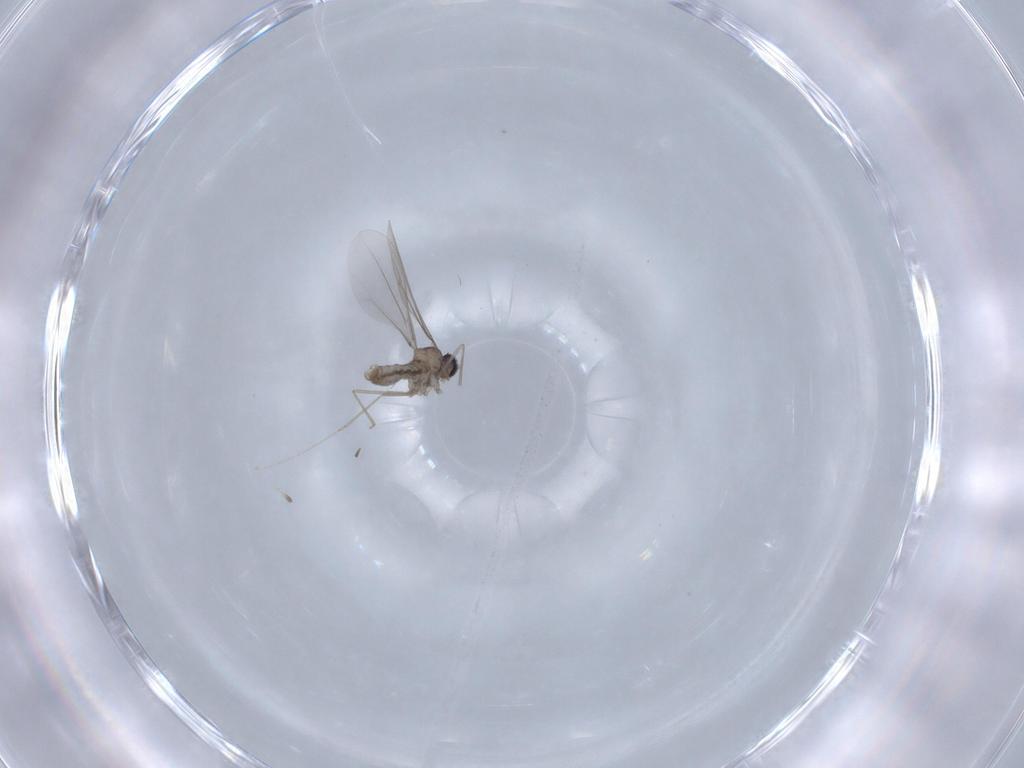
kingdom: Animalia
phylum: Arthropoda
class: Insecta
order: Diptera
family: Cecidomyiidae
